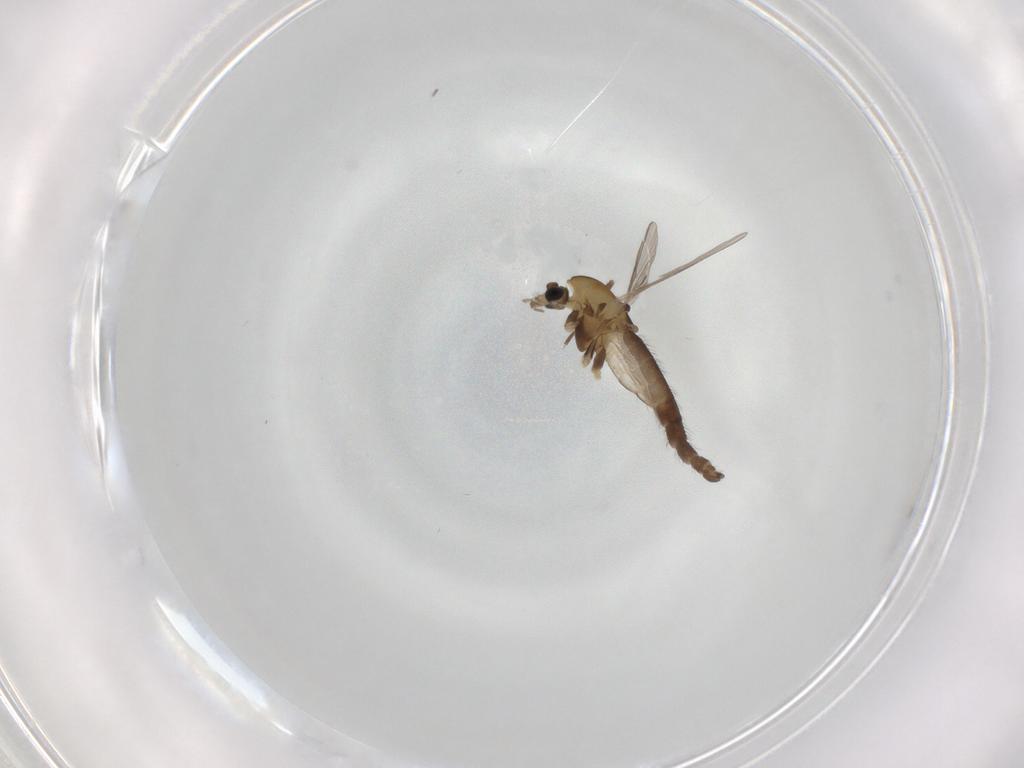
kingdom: Animalia
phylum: Arthropoda
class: Insecta
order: Diptera
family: Chironomidae
